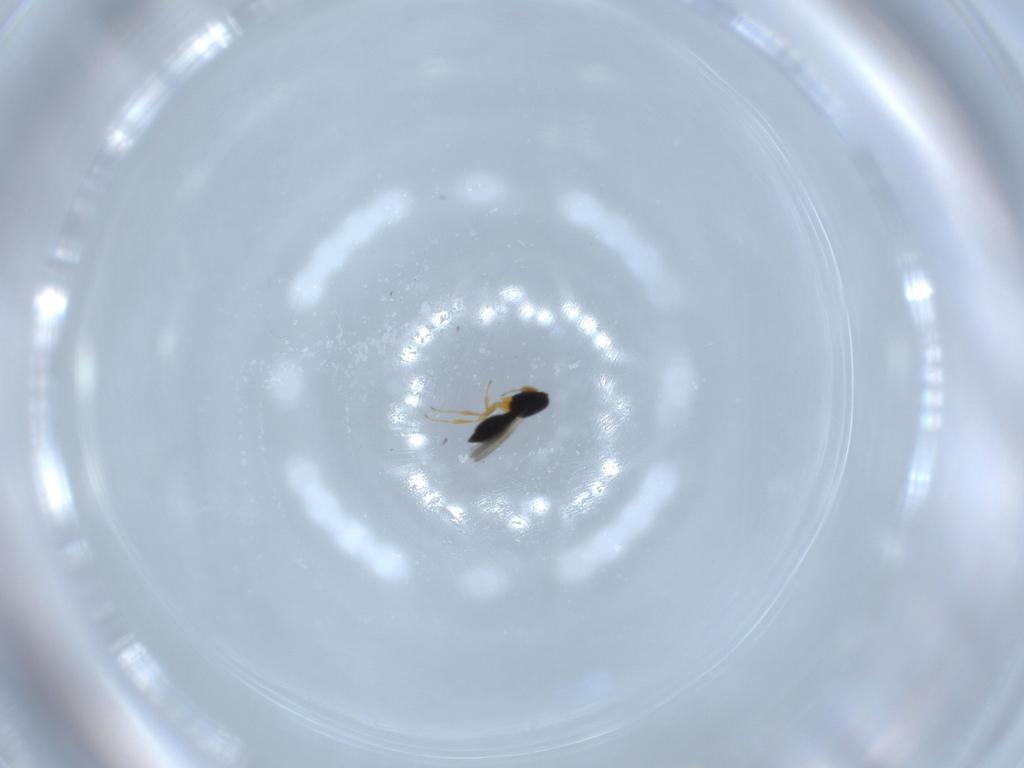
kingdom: Animalia
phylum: Arthropoda
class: Insecta
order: Hymenoptera
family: Scelionidae
